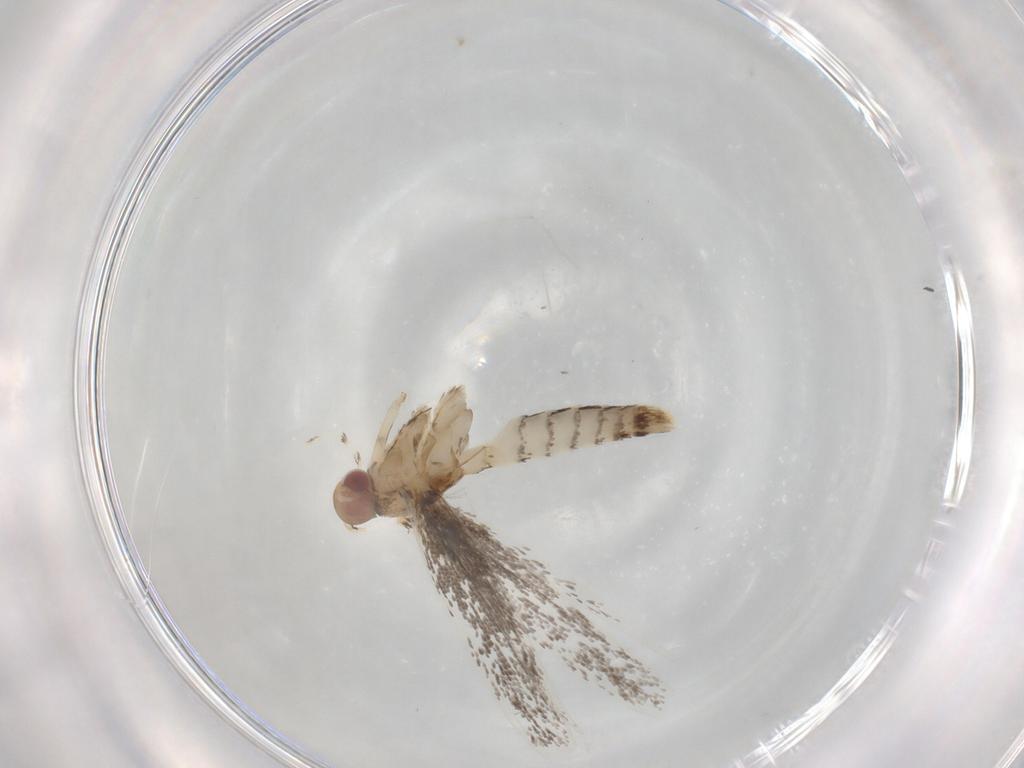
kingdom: Animalia
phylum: Arthropoda
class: Insecta
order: Lepidoptera
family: Gracillariidae
